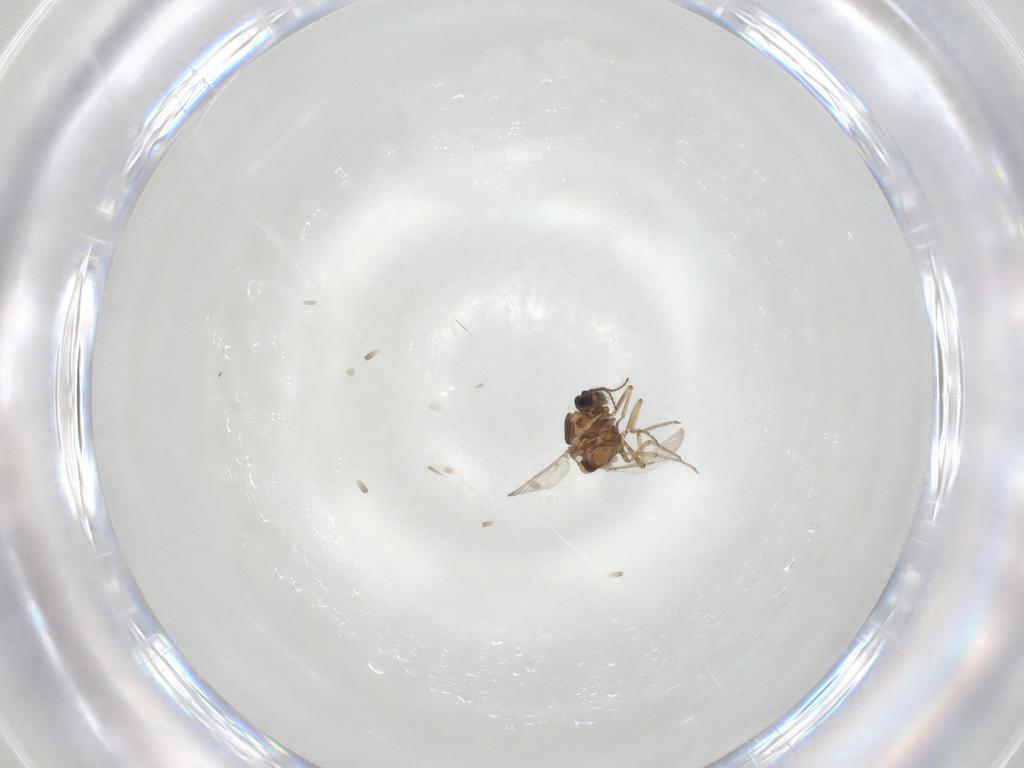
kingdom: Animalia
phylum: Arthropoda
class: Insecta
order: Diptera
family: Ceratopogonidae
